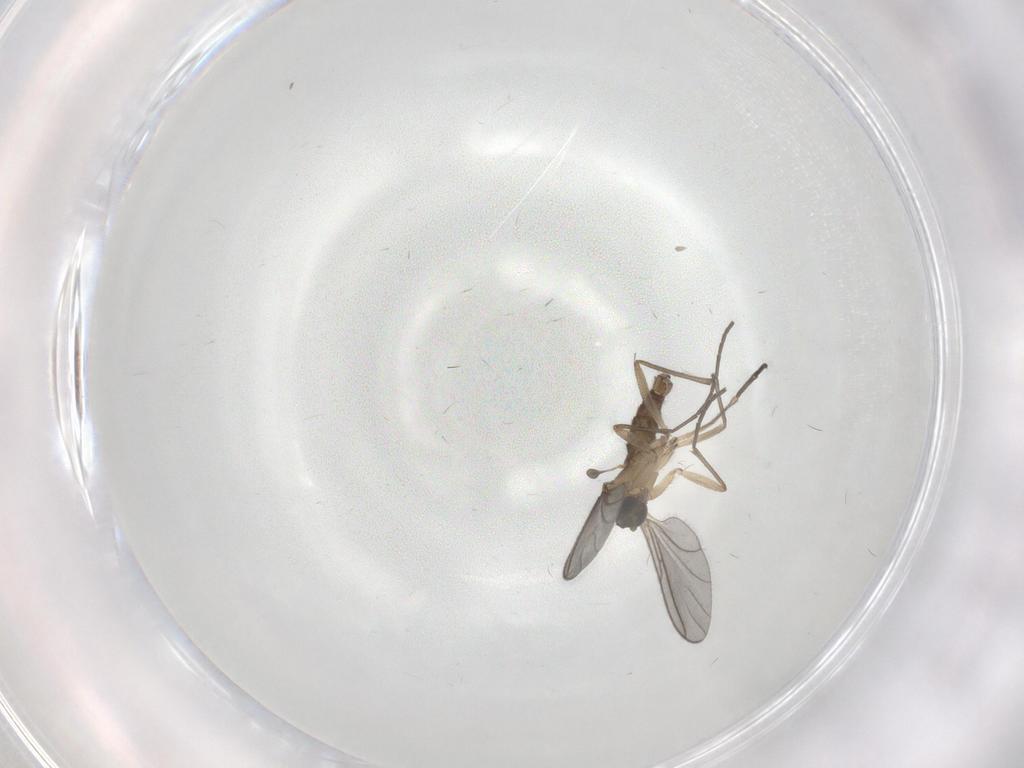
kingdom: Animalia
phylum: Arthropoda
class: Insecta
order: Diptera
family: Sciaridae
